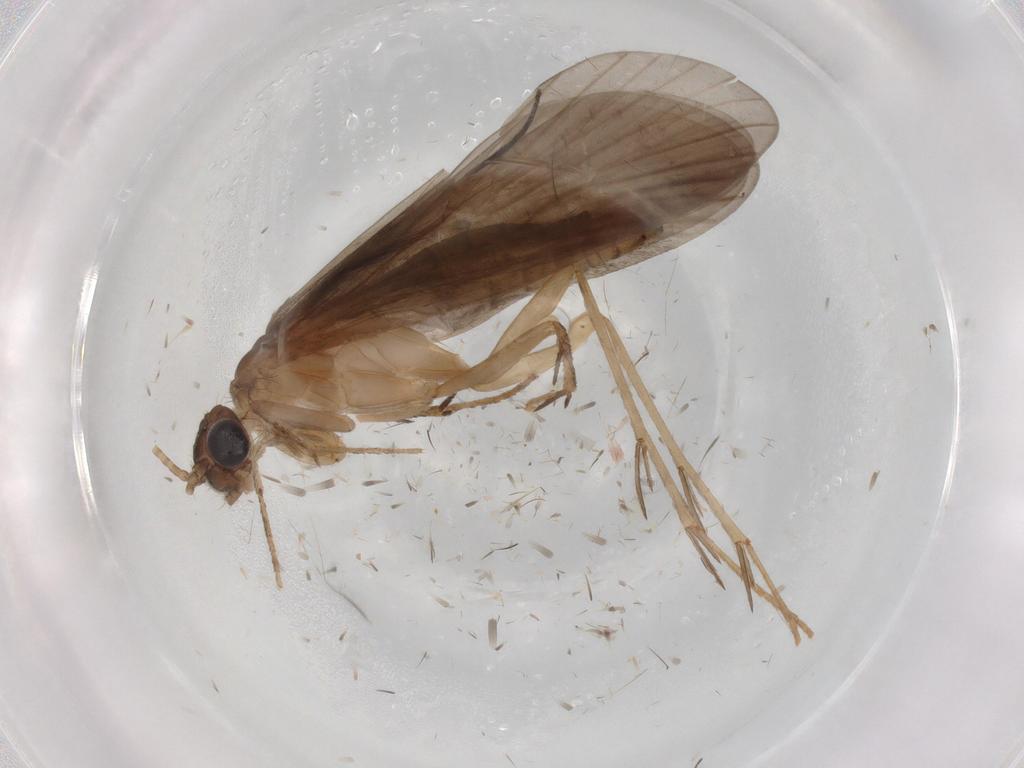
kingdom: Animalia
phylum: Arthropoda
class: Insecta
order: Trichoptera
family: Philopotamidae
